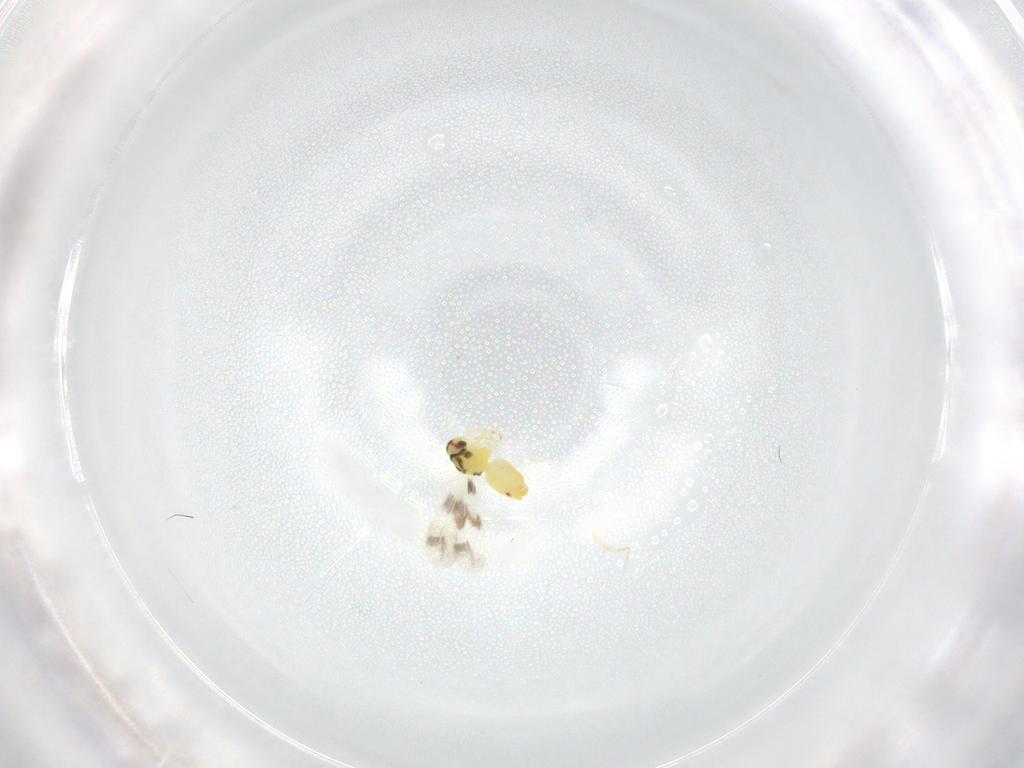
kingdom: Animalia
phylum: Arthropoda
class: Insecta
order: Hemiptera
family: Aleyrodidae
